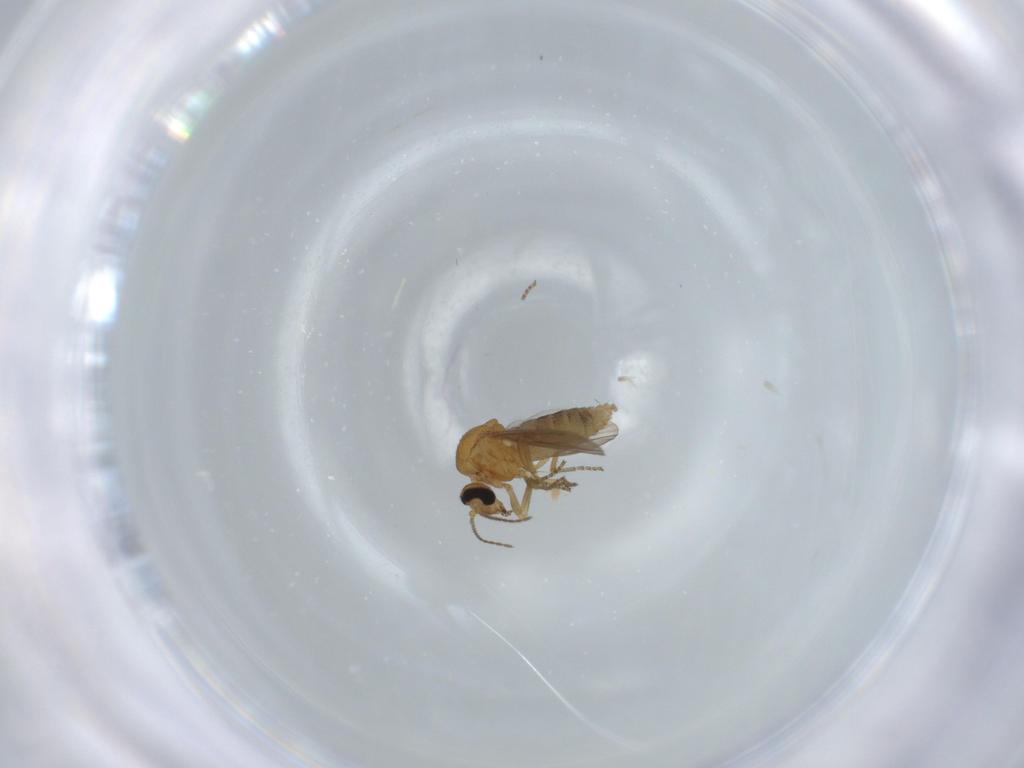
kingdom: Animalia
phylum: Arthropoda
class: Insecta
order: Diptera
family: Ceratopogonidae
